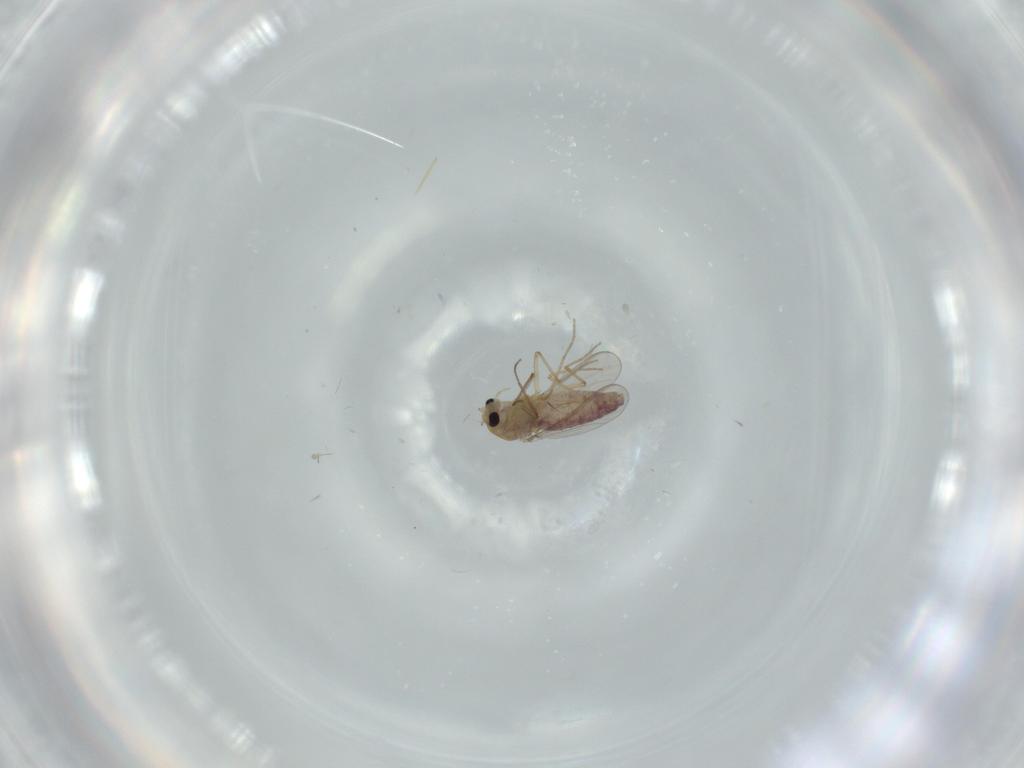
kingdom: Animalia
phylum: Arthropoda
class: Insecta
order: Diptera
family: Chironomidae
